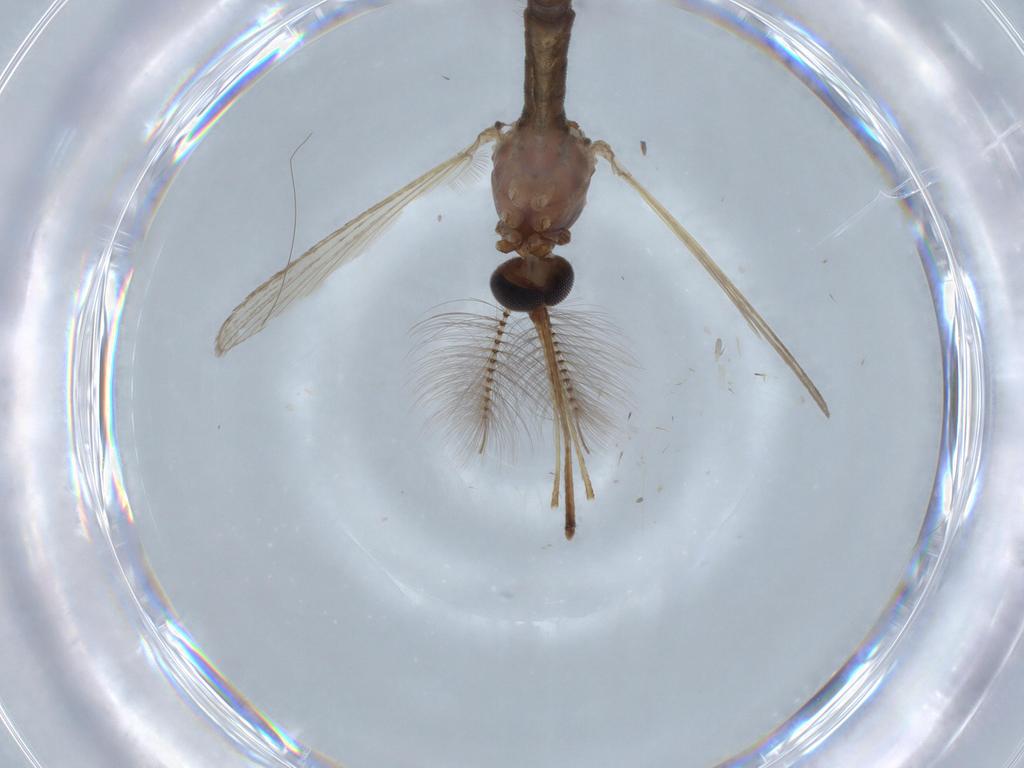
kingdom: Animalia
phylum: Arthropoda
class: Insecta
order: Diptera
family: Ceratopogonidae
